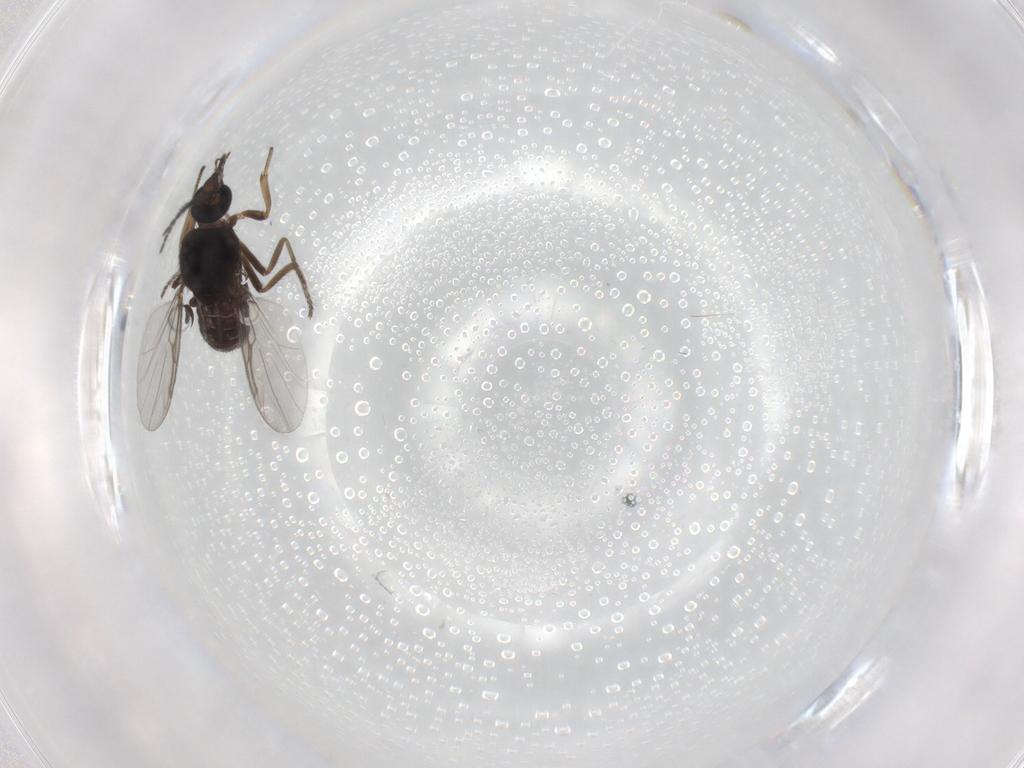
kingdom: Animalia
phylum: Arthropoda
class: Insecta
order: Diptera
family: Ceratopogonidae
